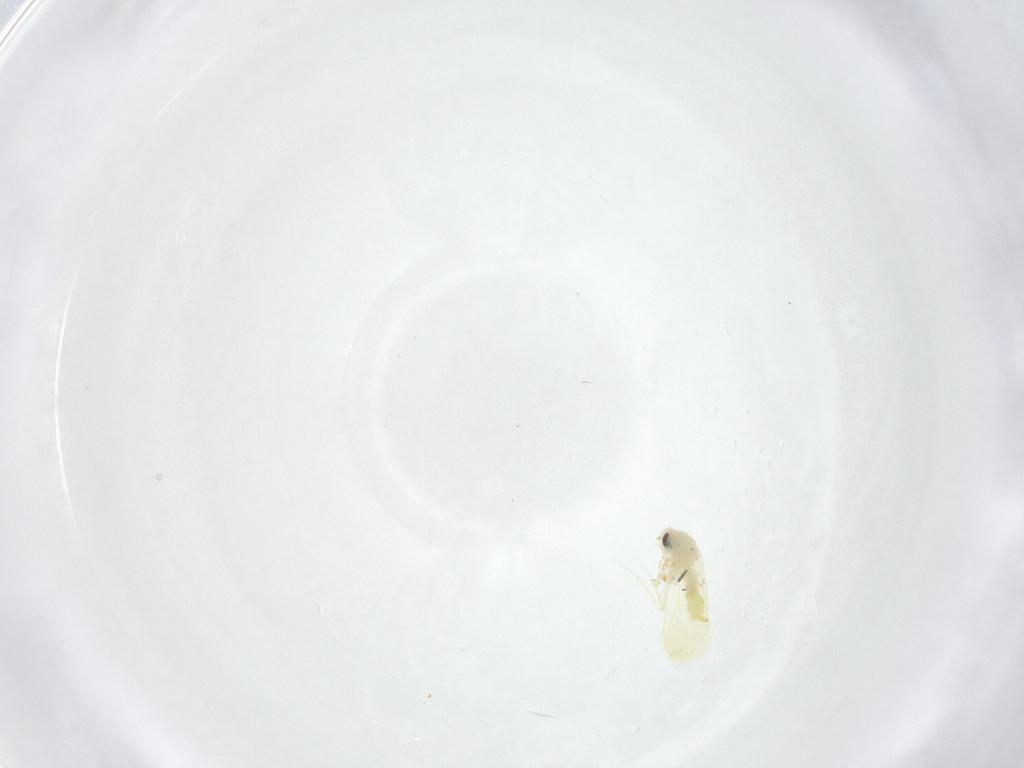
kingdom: Animalia
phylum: Arthropoda
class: Insecta
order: Hemiptera
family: Aleyrodidae
